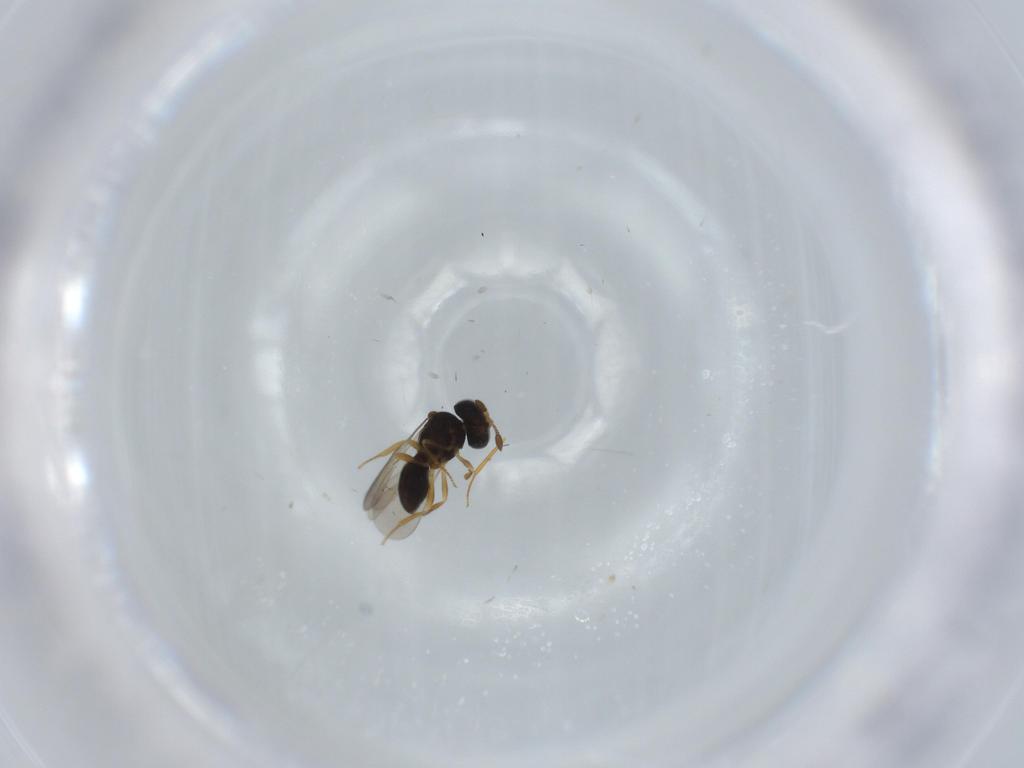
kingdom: Animalia
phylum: Arthropoda
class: Insecta
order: Hymenoptera
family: Scelionidae
